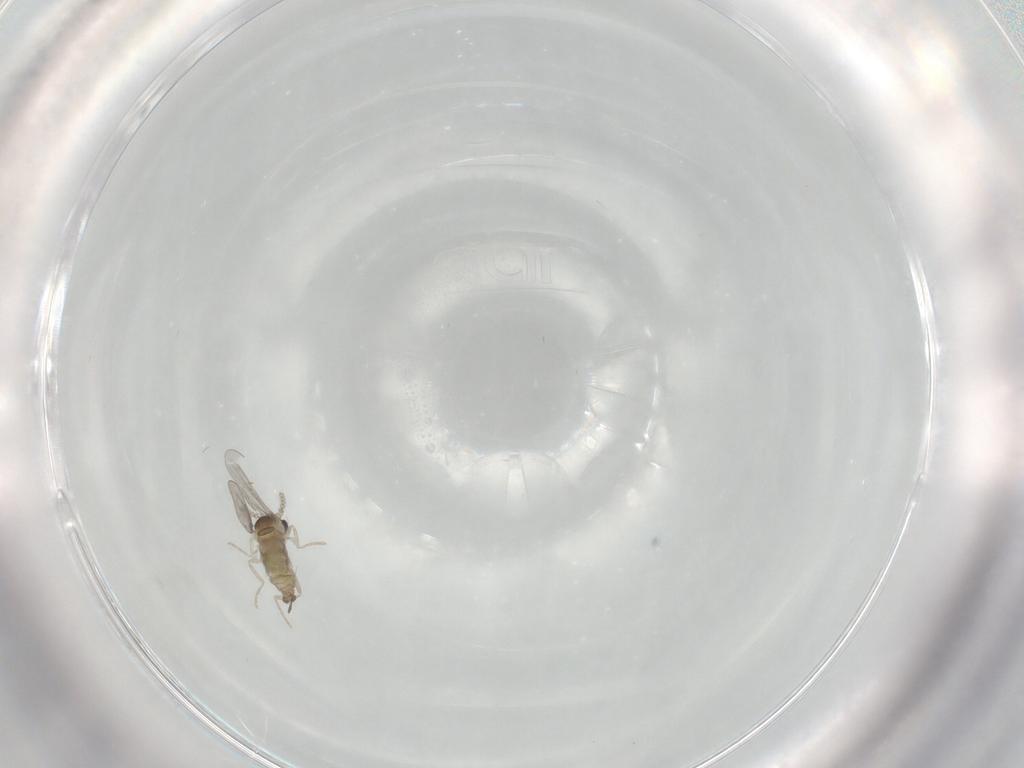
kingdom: Animalia
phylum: Arthropoda
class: Insecta
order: Diptera
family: Cecidomyiidae
